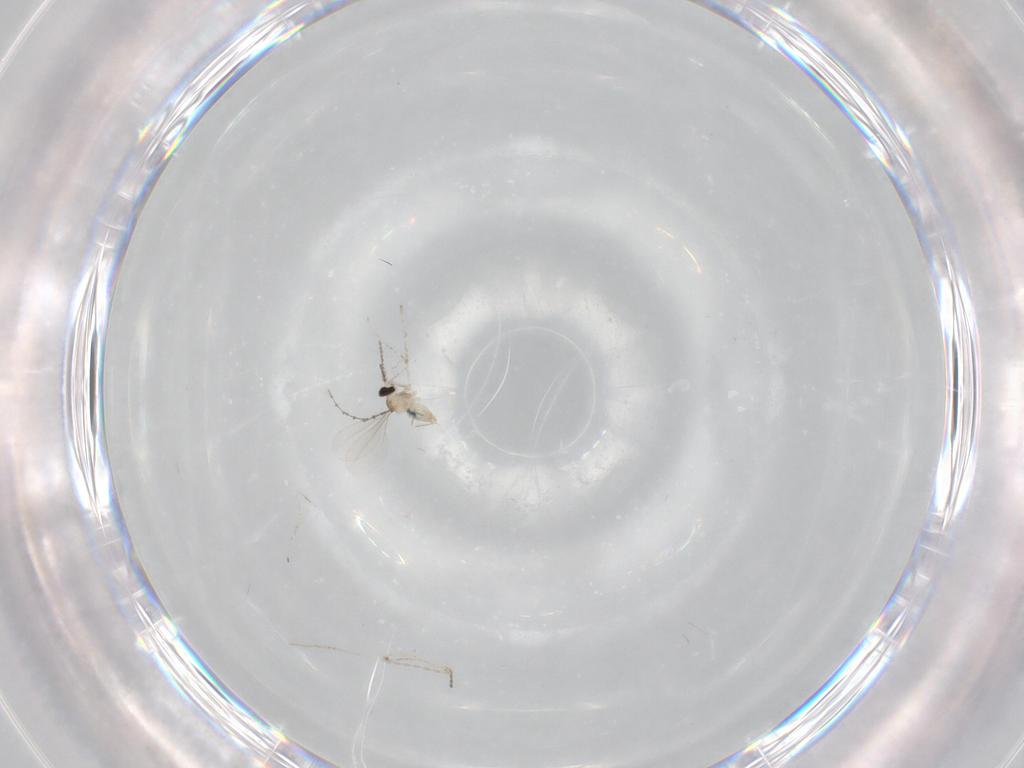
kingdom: Animalia
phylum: Arthropoda
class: Insecta
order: Diptera
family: Cecidomyiidae
